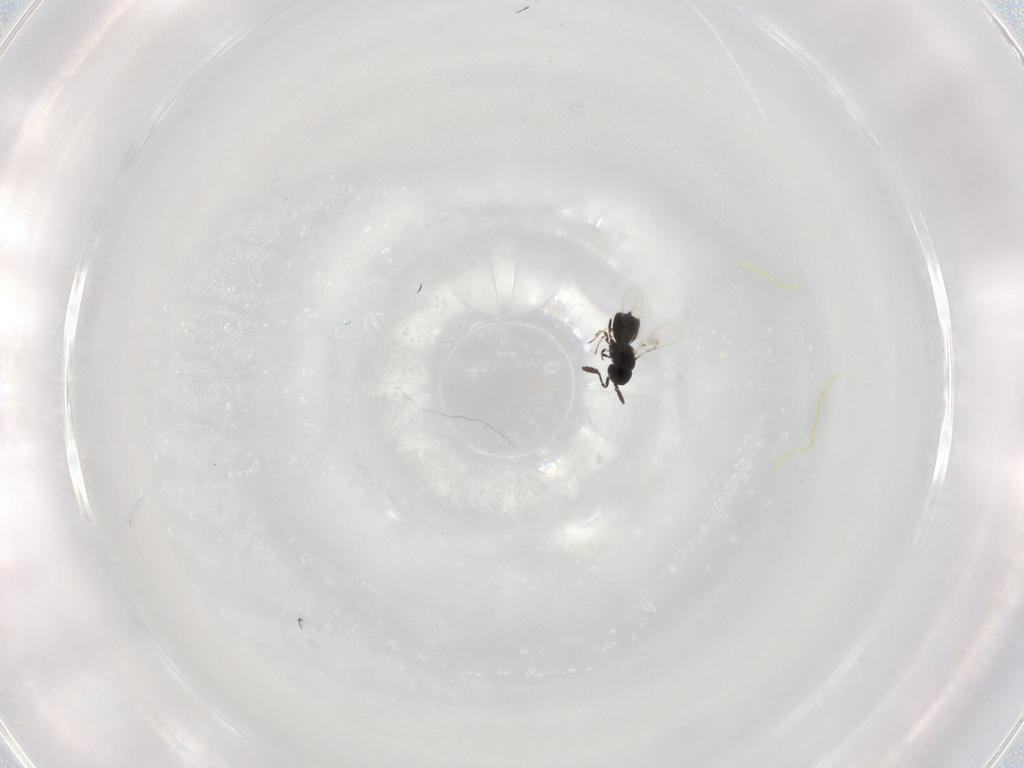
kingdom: Animalia
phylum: Arthropoda
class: Insecta
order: Hymenoptera
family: Scelionidae
